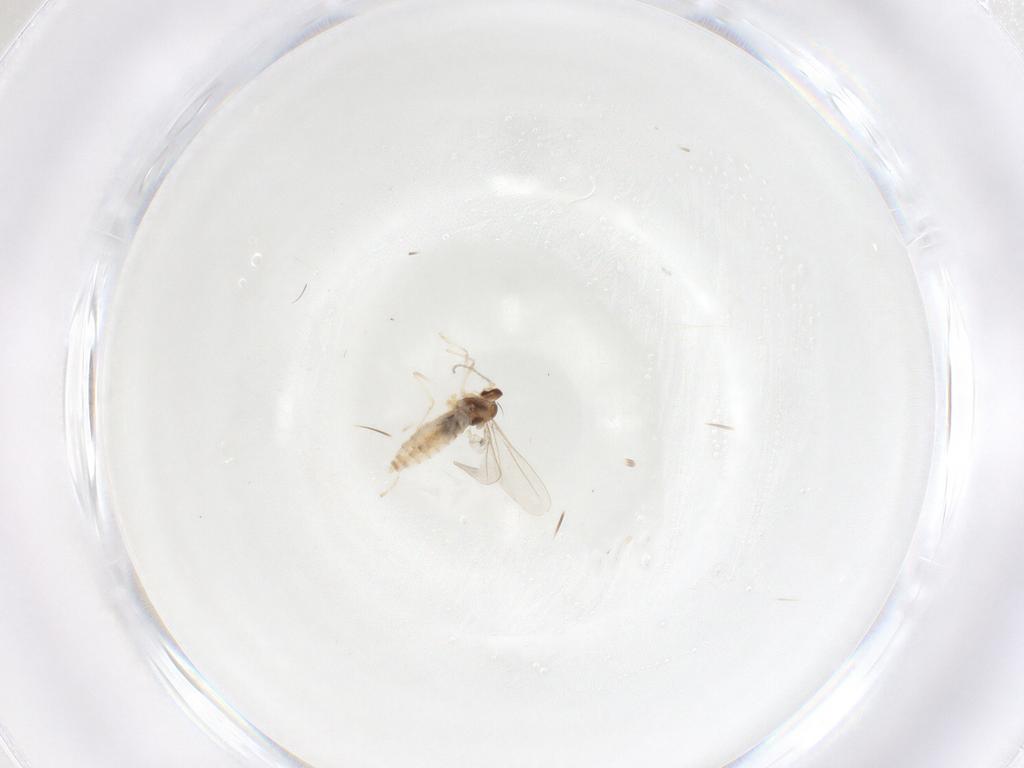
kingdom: Animalia
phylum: Arthropoda
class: Insecta
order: Diptera
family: Cecidomyiidae
